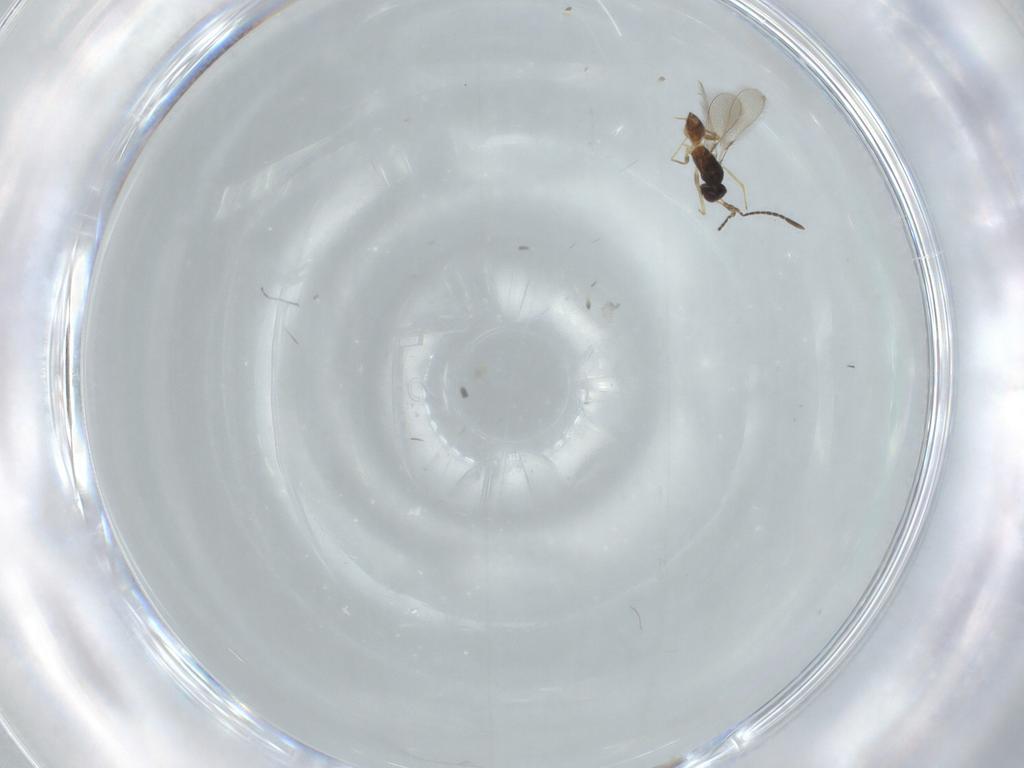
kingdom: Animalia
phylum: Arthropoda
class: Insecta
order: Hymenoptera
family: Mymaridae
